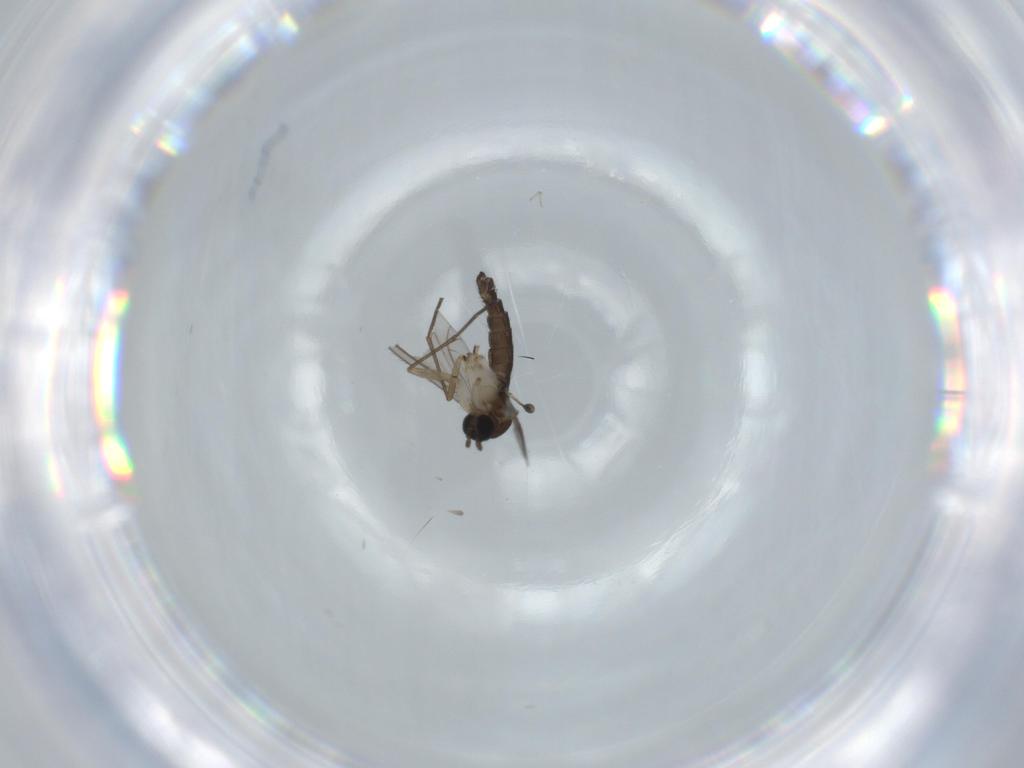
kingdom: Animalia
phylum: Arthropoda
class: Insecta
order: Diptera
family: Sciaridae
